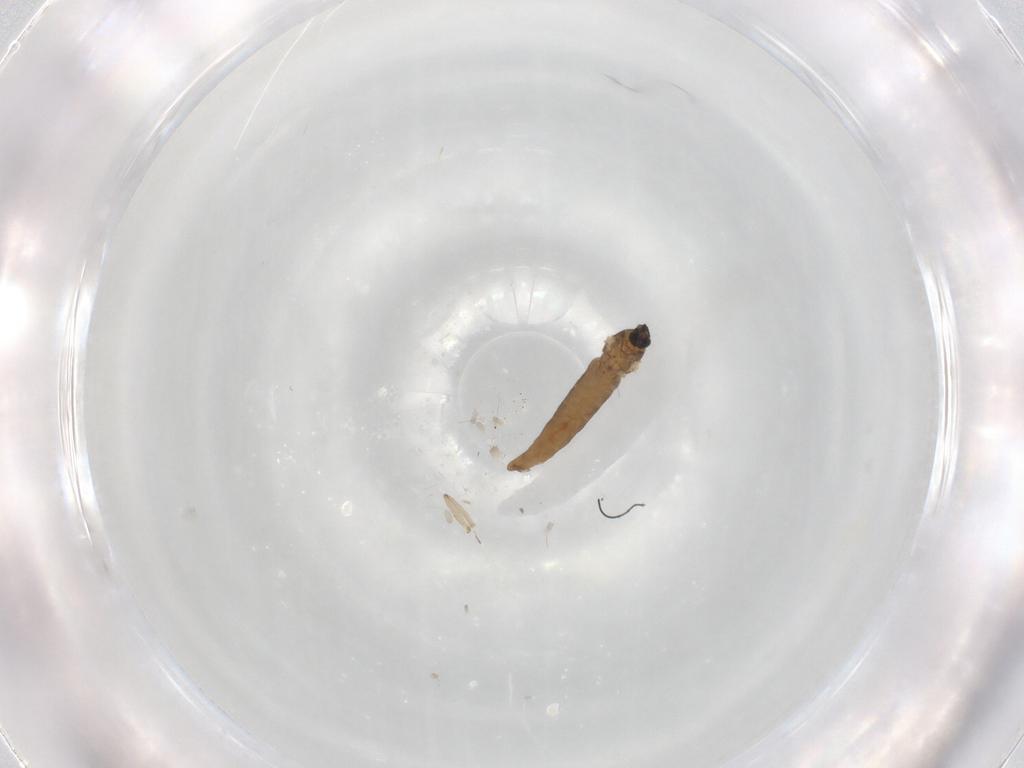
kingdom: Animalia
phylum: Arthropoda
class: Insecta
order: Diptera
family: Cecidomyiidae
